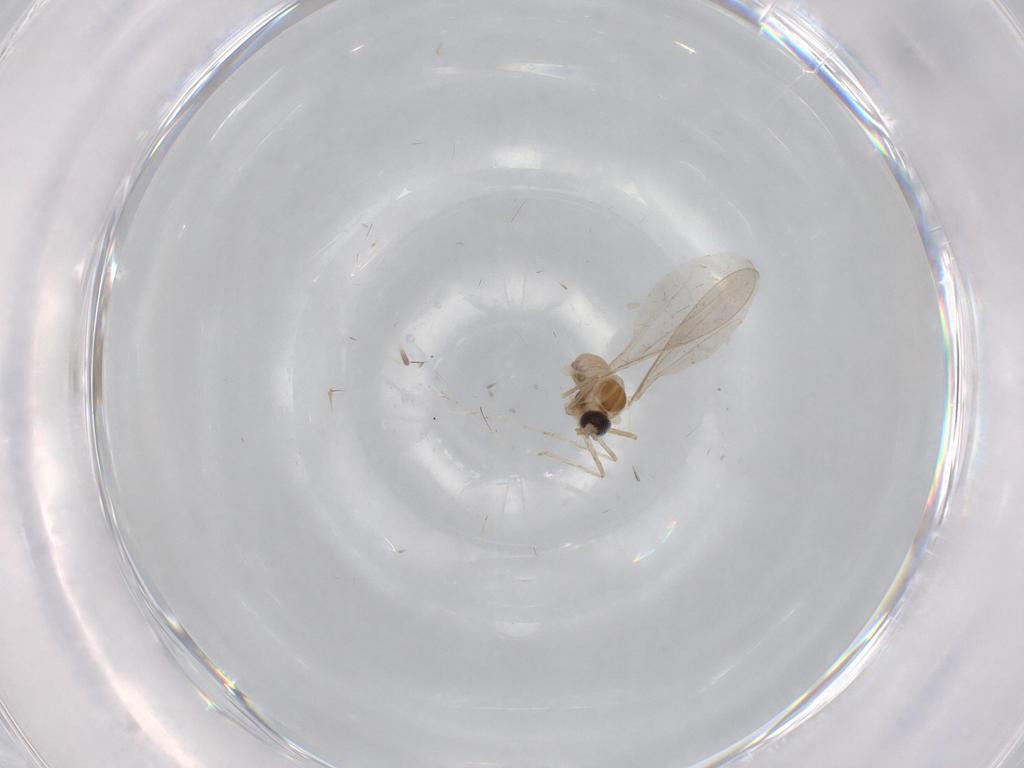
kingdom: Animalia
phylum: Arthropoda
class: Insecta
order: Diptera
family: Cecidomyiidae
